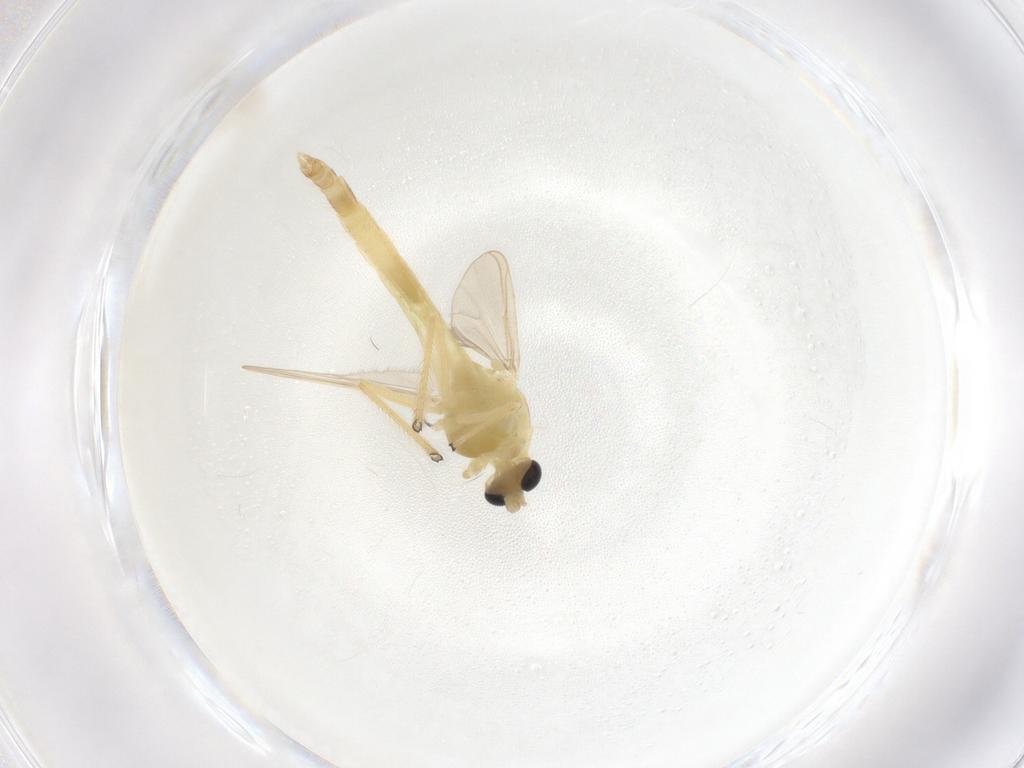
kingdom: Animalia
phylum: Arthropoda
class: Insecta
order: Diptera
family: Chironomidae
